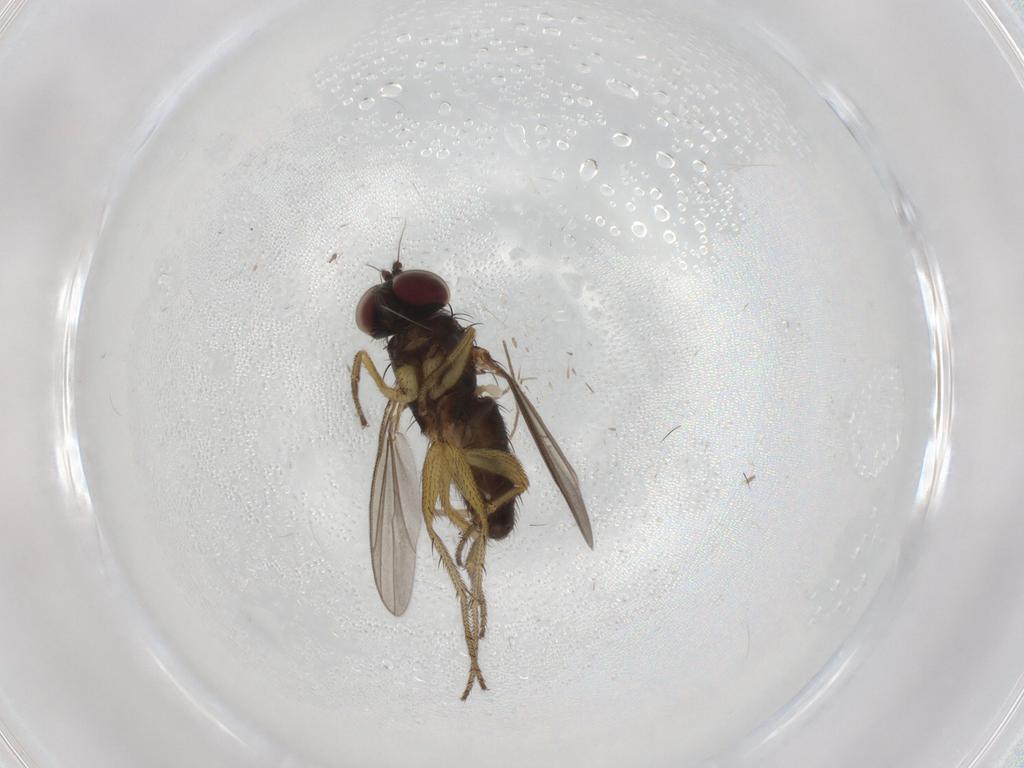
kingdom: Animalia
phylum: Arthropoda
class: Insecta
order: Diptera
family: Chironomidae
